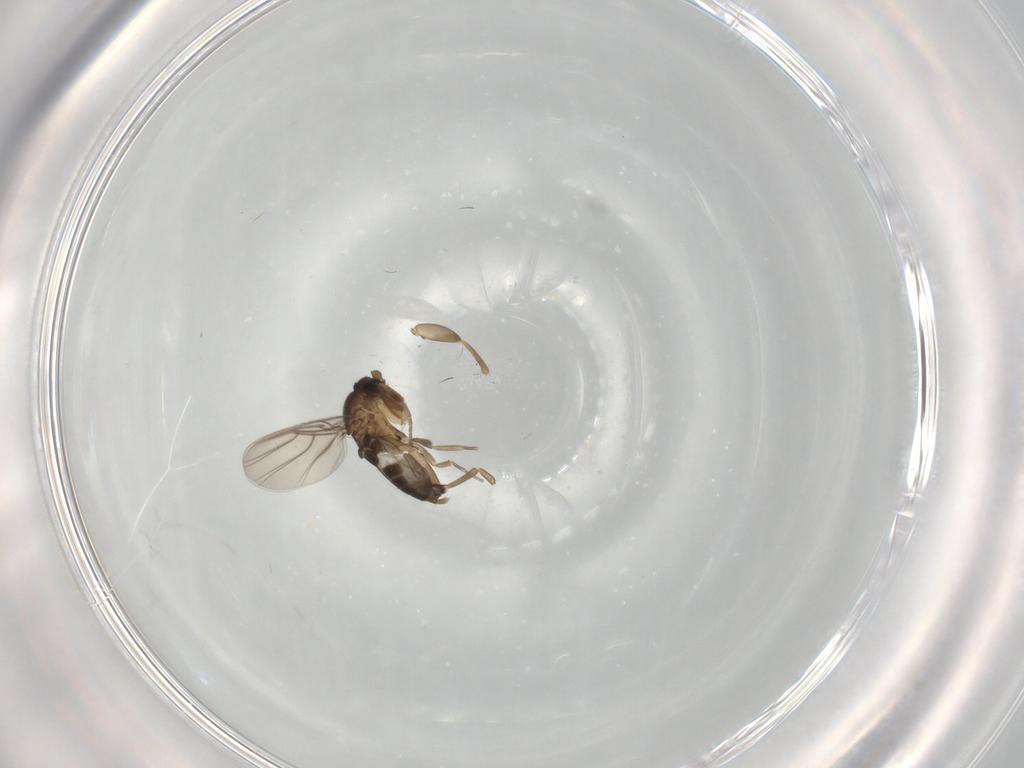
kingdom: Animalia
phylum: Arthropoda
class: Insecta
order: Diptera
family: Phoridae
